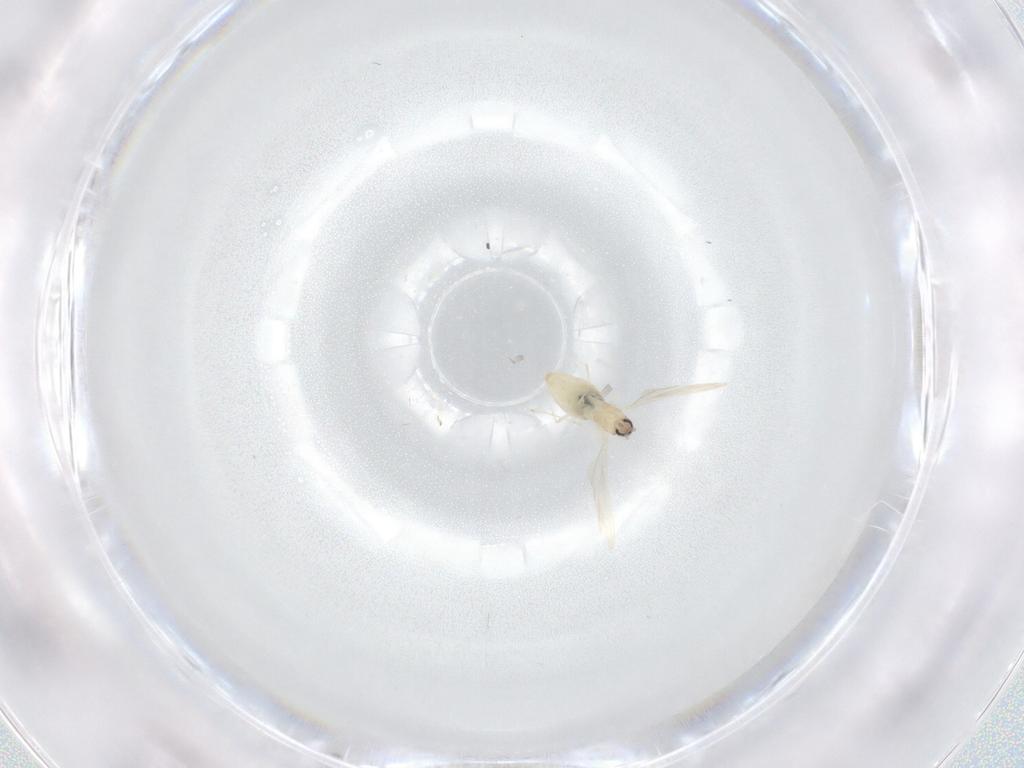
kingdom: Animalia
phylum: Arthropoda
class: Insecta
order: Diptera
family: Cecidomyiidae
